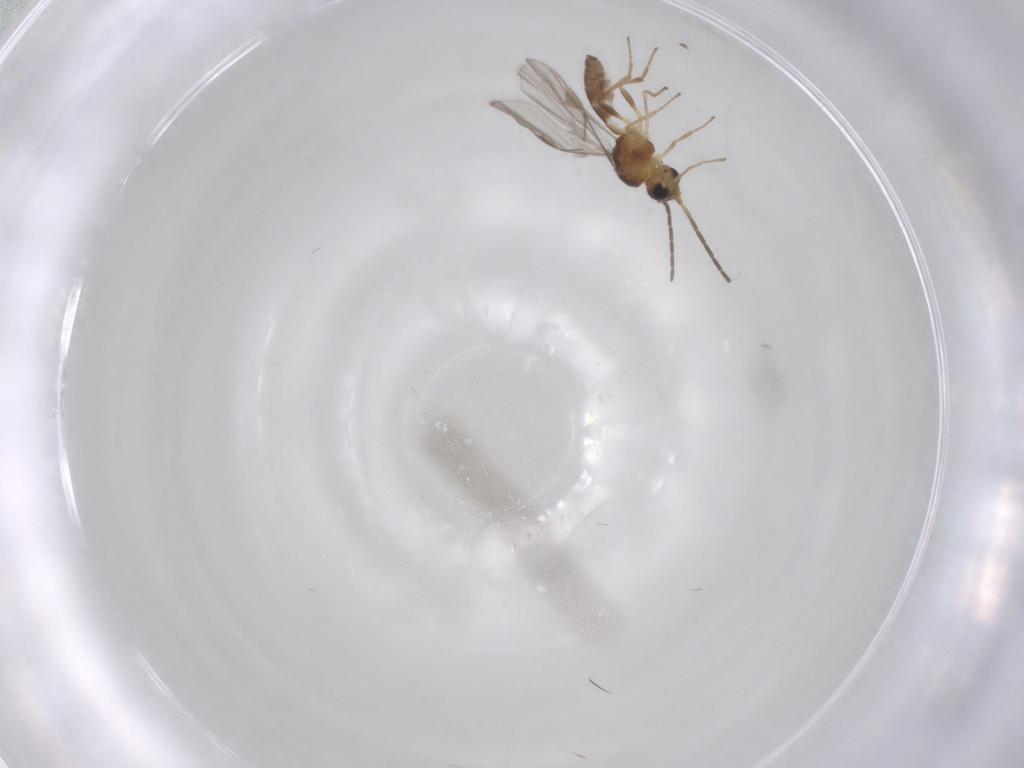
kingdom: Animalia
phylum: Arthropoda
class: Insecta
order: Hymenoptera
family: Braconidae
